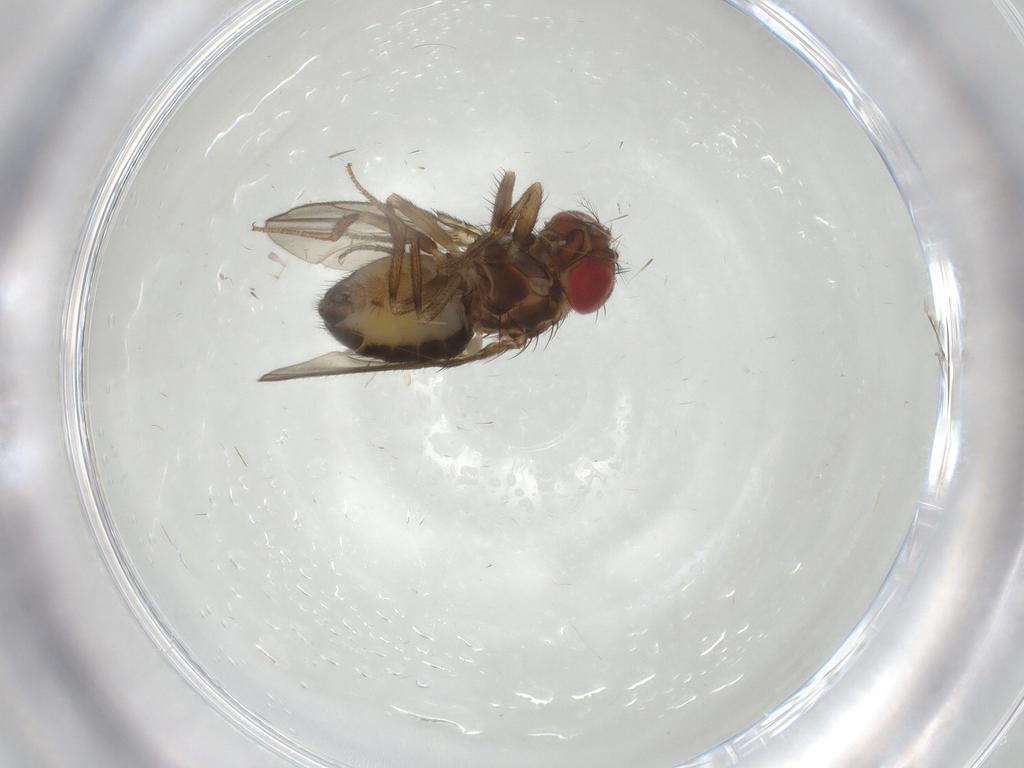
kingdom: Animalia
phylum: Arthropoda
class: Insecta
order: Diptera
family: Drosophilidae
